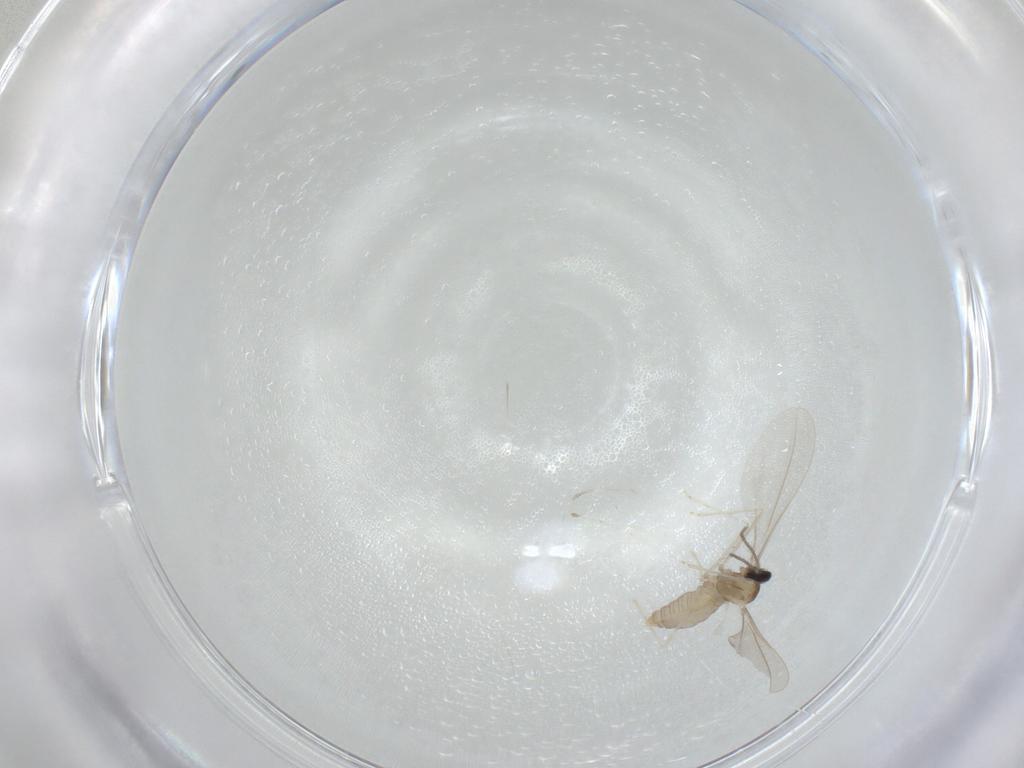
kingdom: Animalia
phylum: Arthropoda
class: Insecta
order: Diptera
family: Cecidomyiidae
